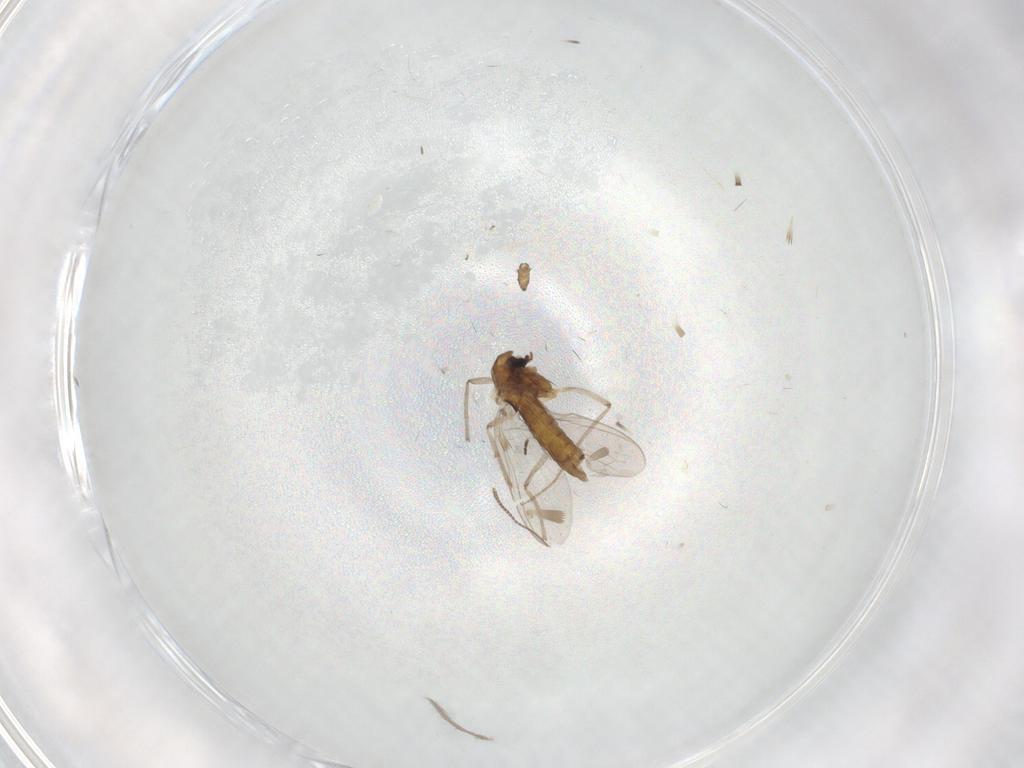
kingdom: Animalia
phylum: Arthropoda
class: Insecta
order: Diptera
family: Chironomidae
